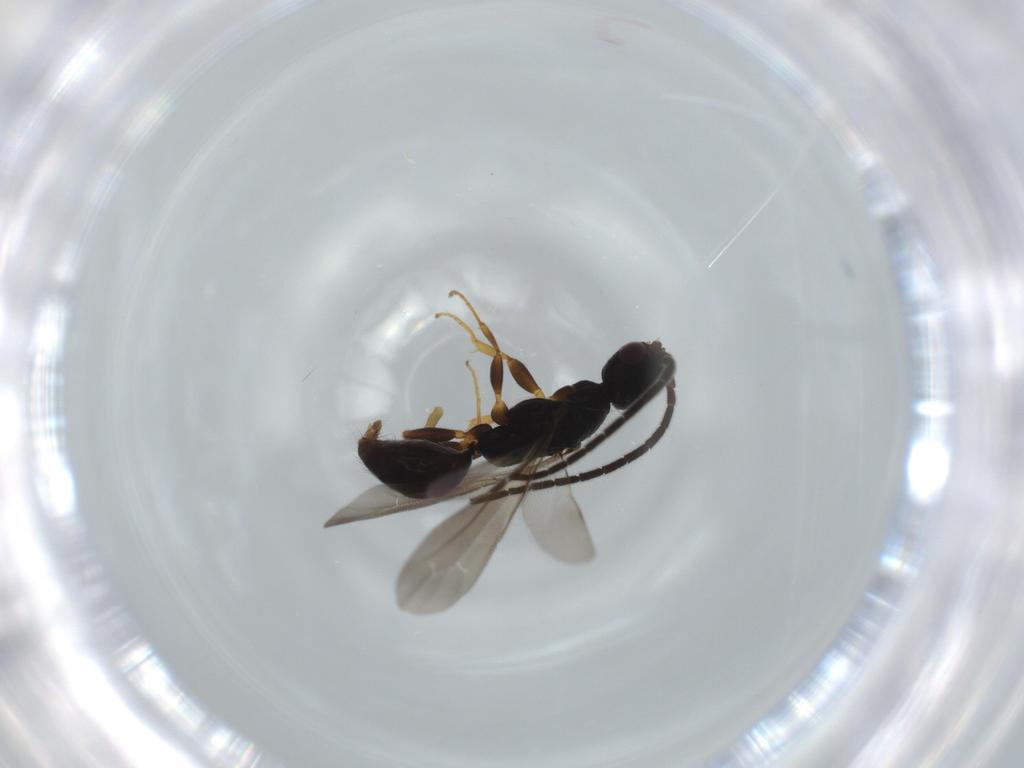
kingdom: Animalia
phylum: Arthropoda
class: Insecta
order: Hymenoptera
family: Bethylidae
